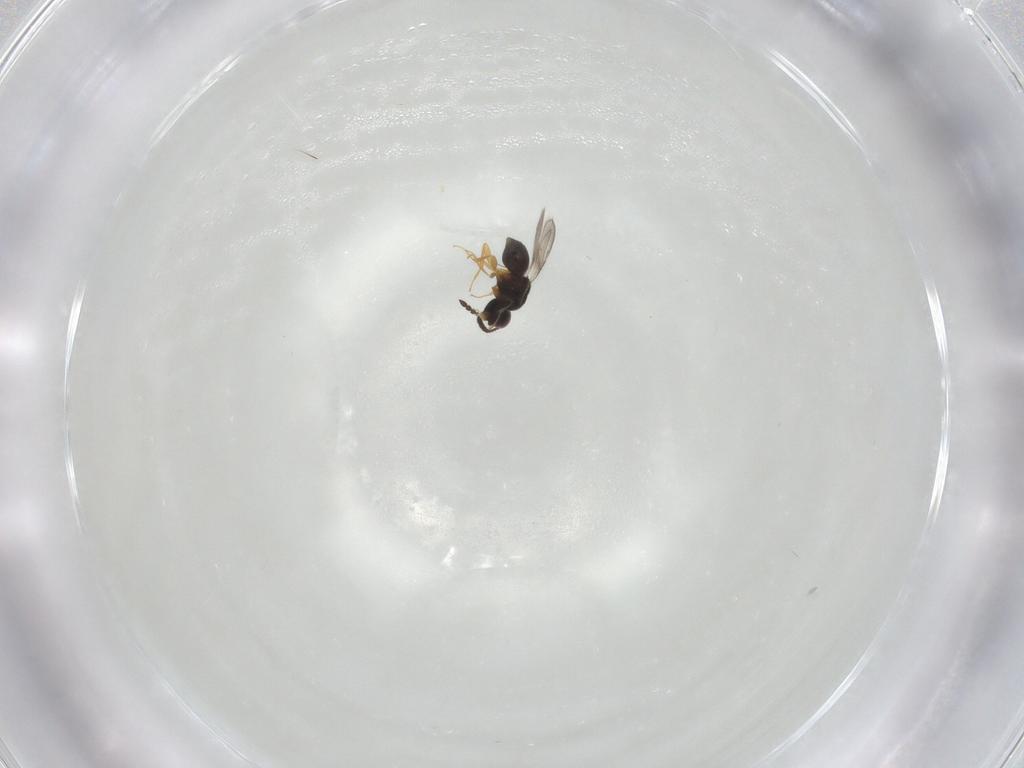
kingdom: Animalia
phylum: Arthropoda
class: Insecta
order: Hymenoptera
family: Ceraphronidae
